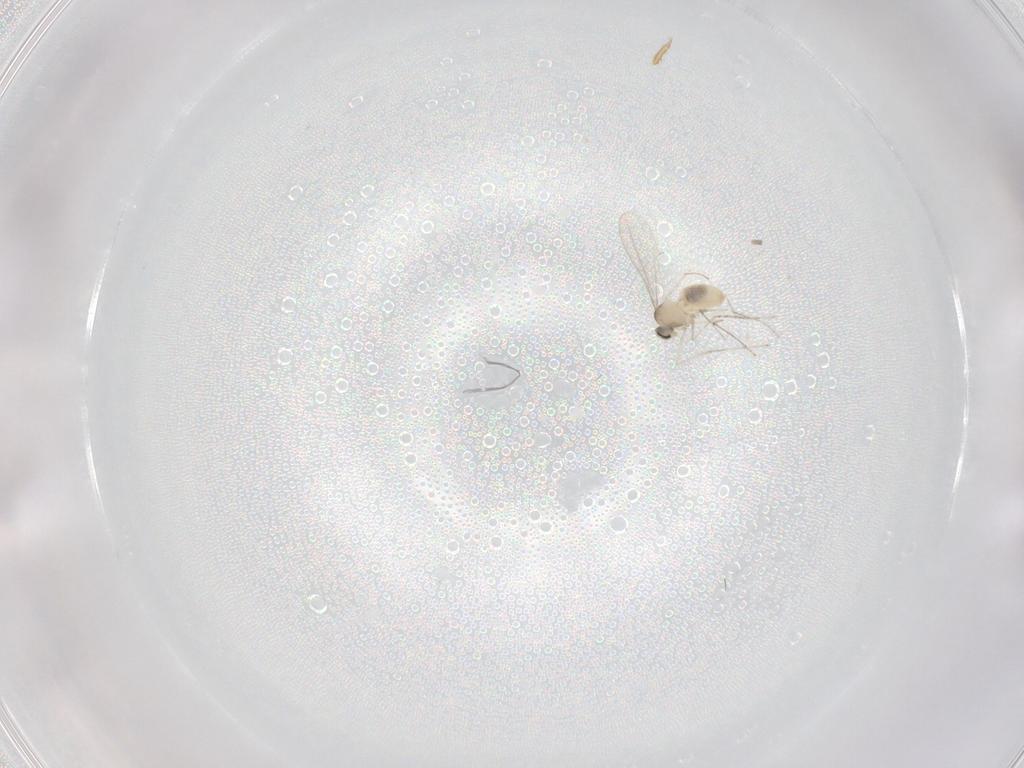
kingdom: Animalia
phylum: Arthropoda
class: Insecta
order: Diptera
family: Cecidomyiidae
